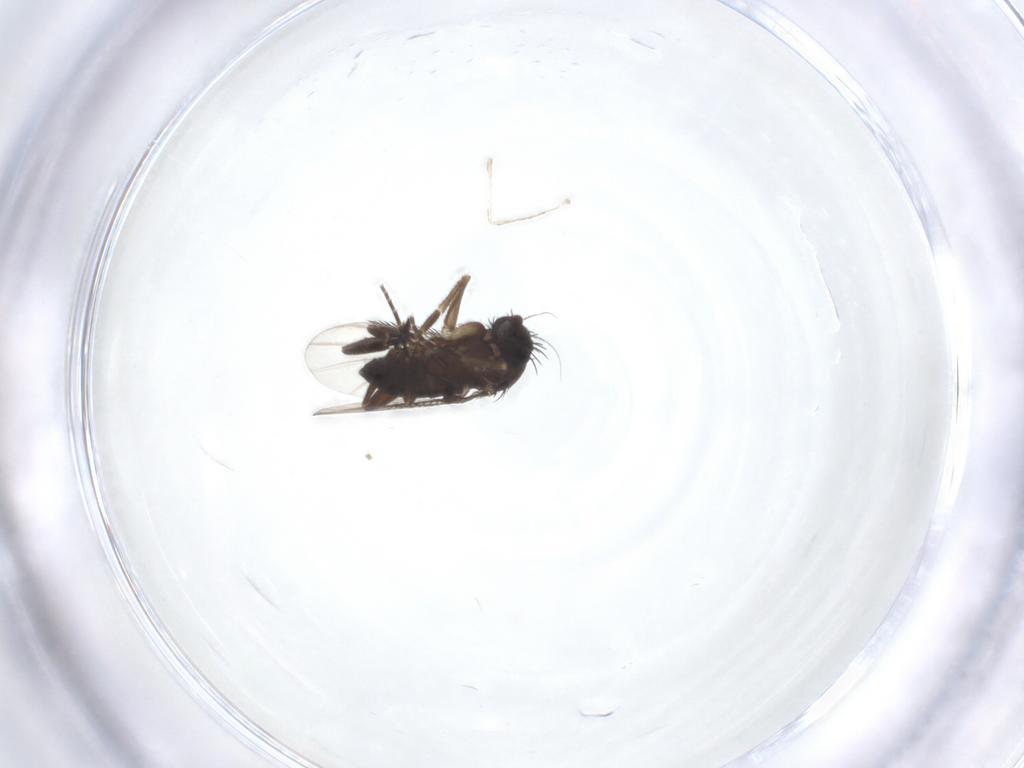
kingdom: Animalia
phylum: Arthropoda
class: Insecta
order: Diptera
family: Phoridae
